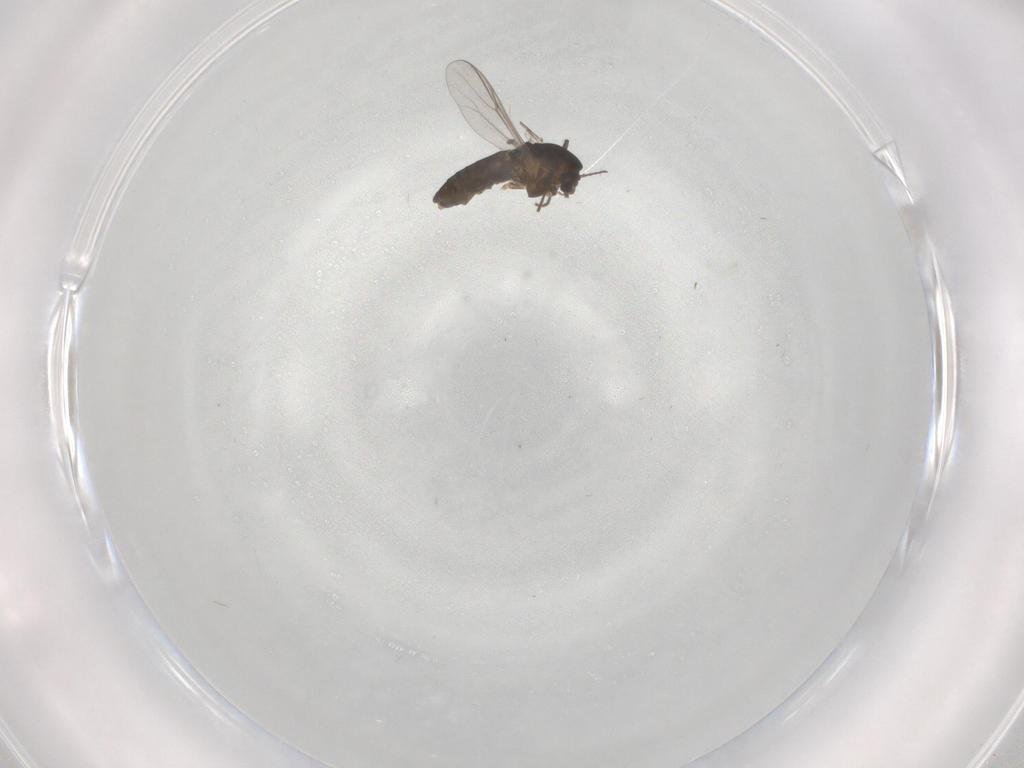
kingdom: Animalia
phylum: Arthropoda
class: Insecta
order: Diptera
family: Chironomidae
